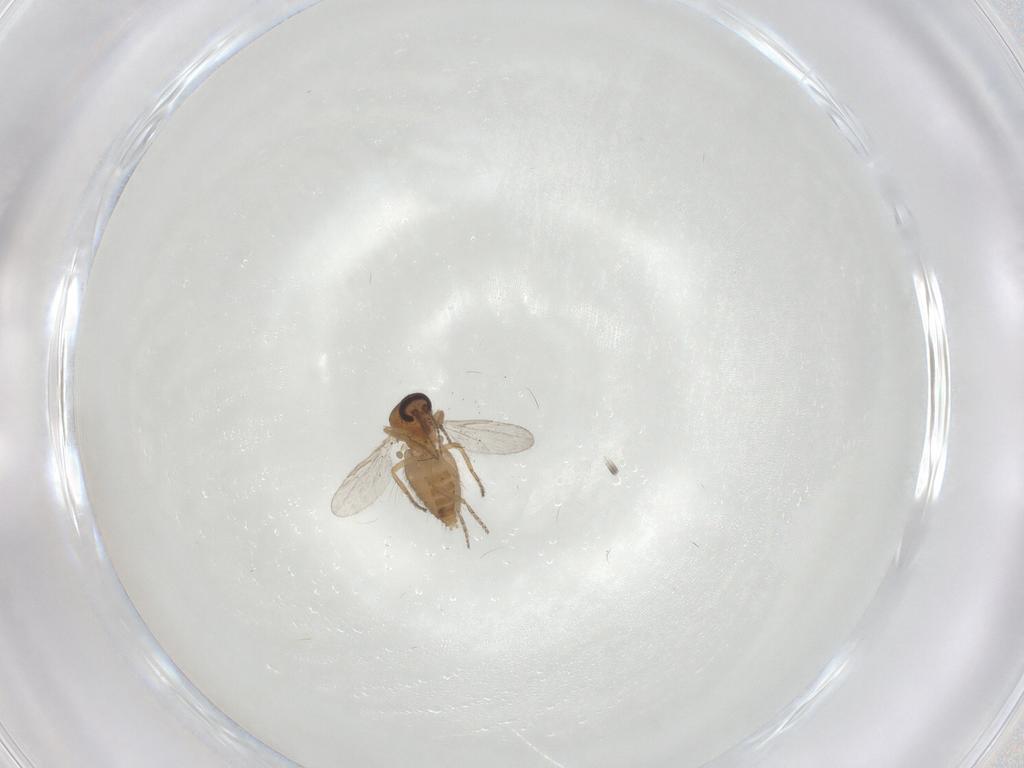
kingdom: Animalia
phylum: Arthropoda
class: Insecta
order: Diptera
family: Ceratopogonidae
